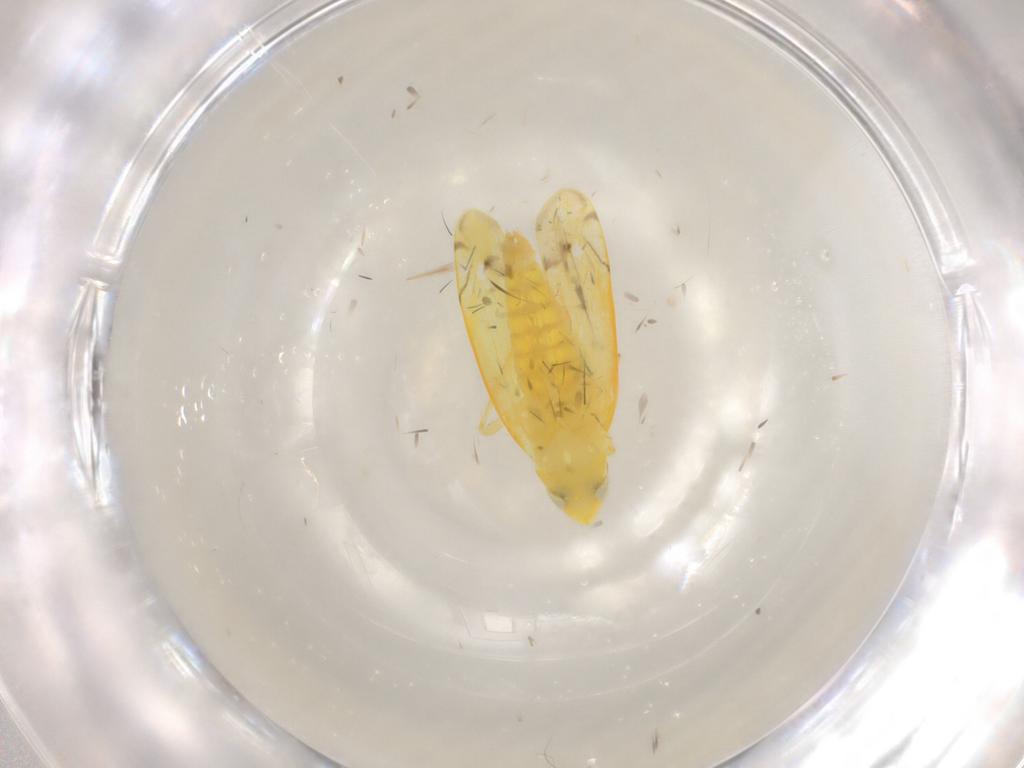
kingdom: Animalia
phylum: Arthropoda
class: Insecta
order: Hemiptera
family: Cicadellidae
